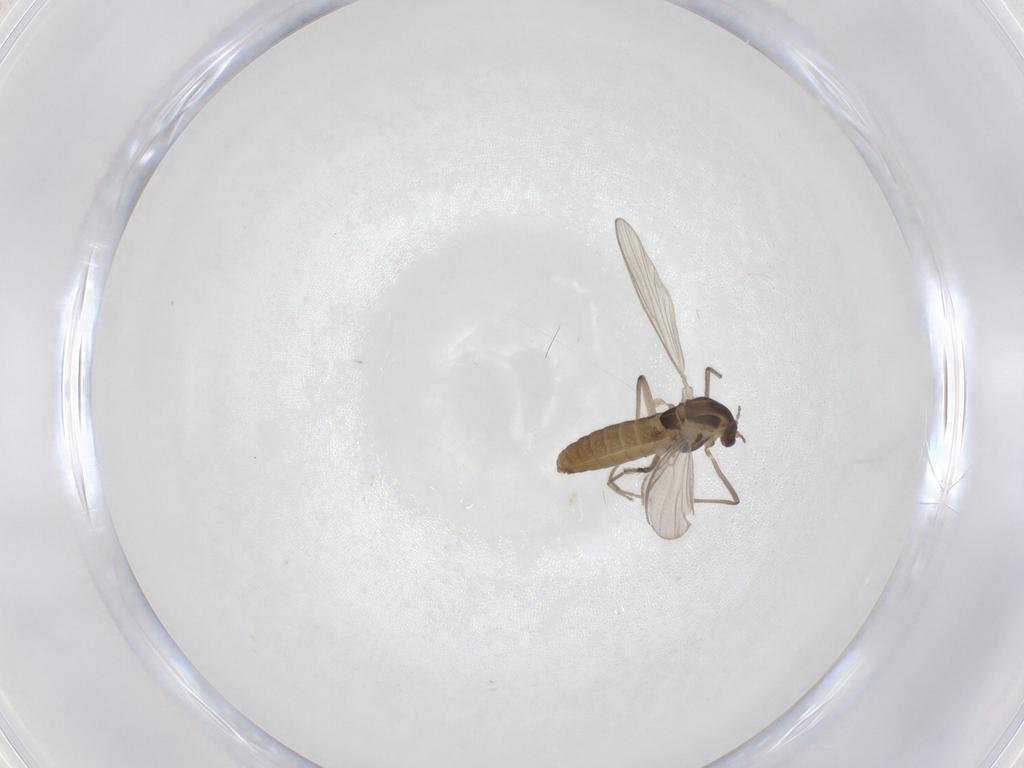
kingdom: Animalia
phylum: Arthropoda
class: Insecta
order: Diptera
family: Chironomidae
